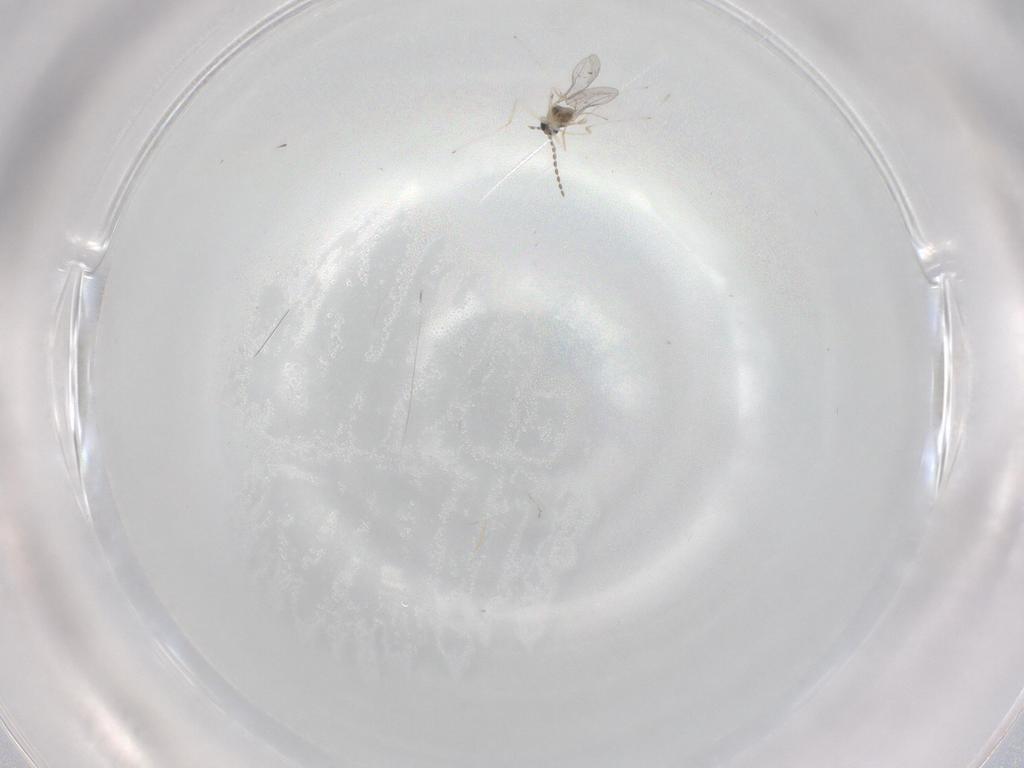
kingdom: Animalia
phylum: Arthropoda
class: Insecta
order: Diptera
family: Cecidomyiidae
